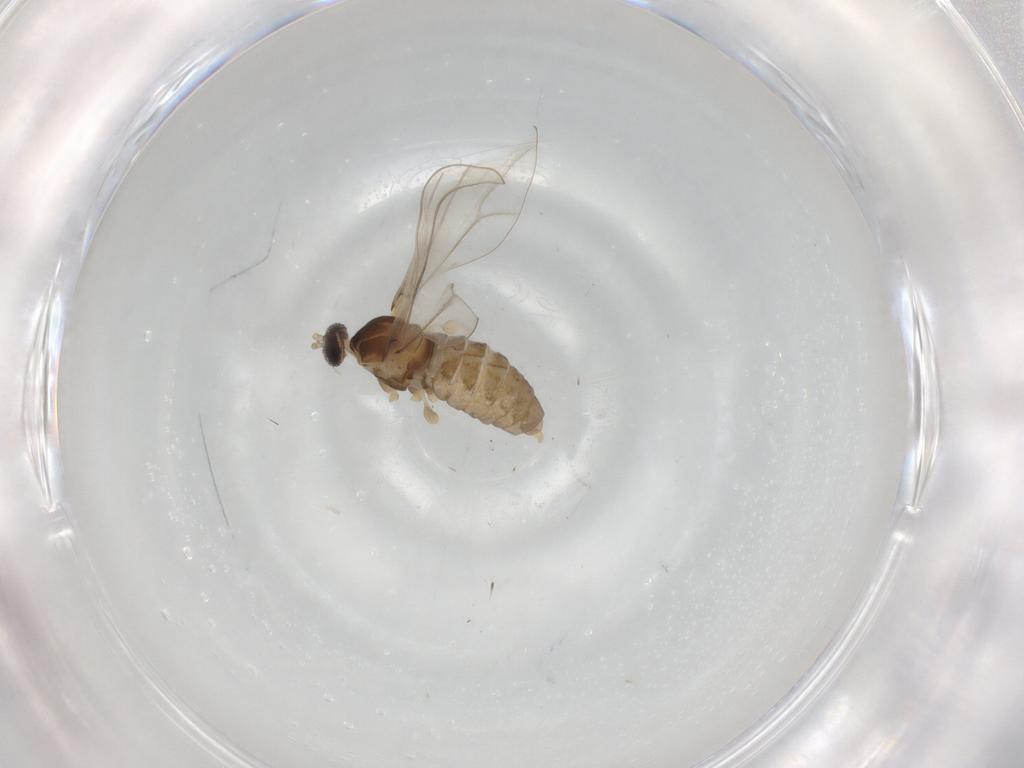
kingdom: Animalia
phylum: Arthropoda
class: Insecta
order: Diptera
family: Cecidomyiidae
